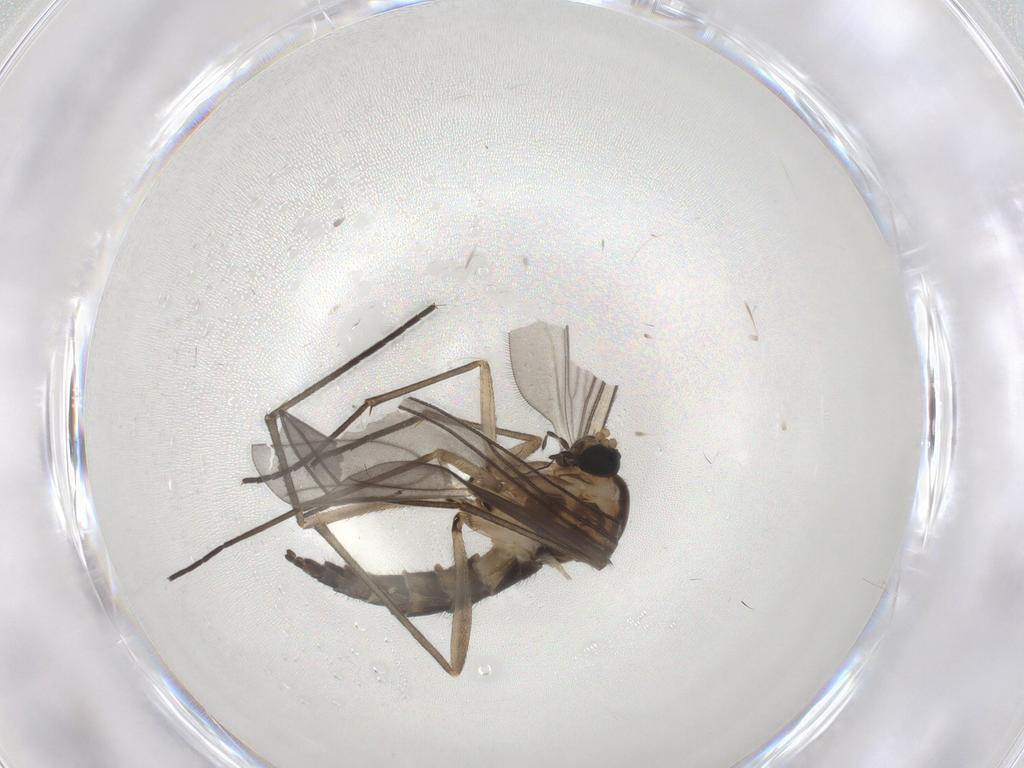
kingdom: Animalia
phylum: Arthropoda
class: Insecta
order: Diptera
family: Sciaridae
